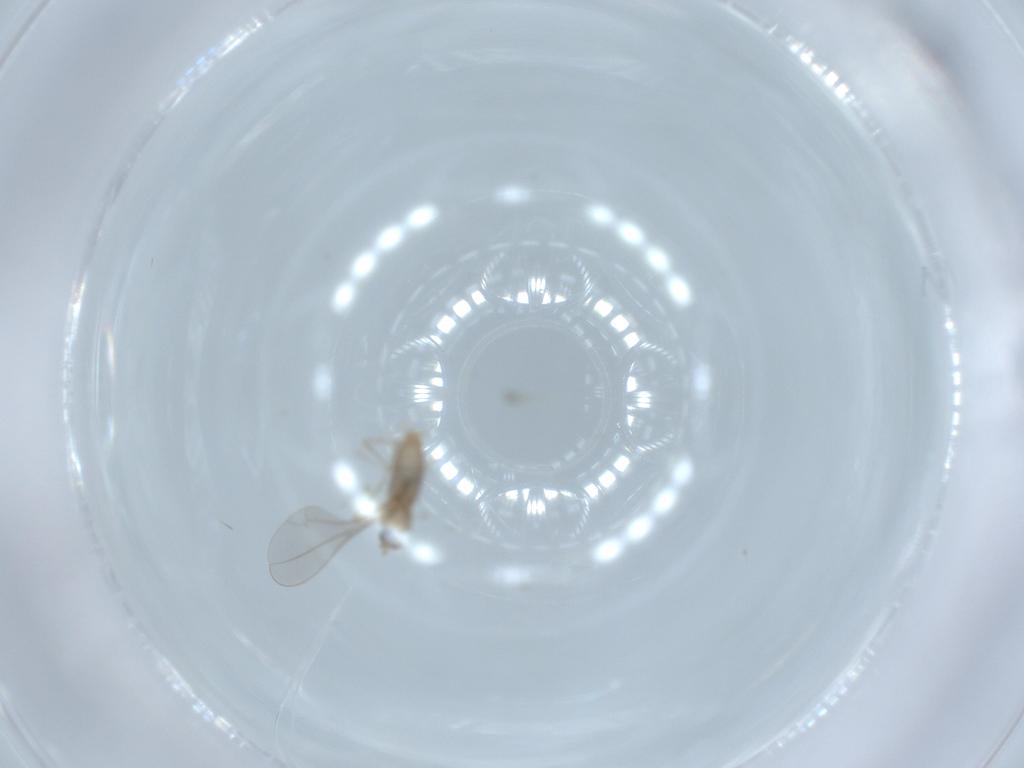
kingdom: Animalia
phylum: Arthropoda
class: Insecta
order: Diptera
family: Cecidomyiidae
